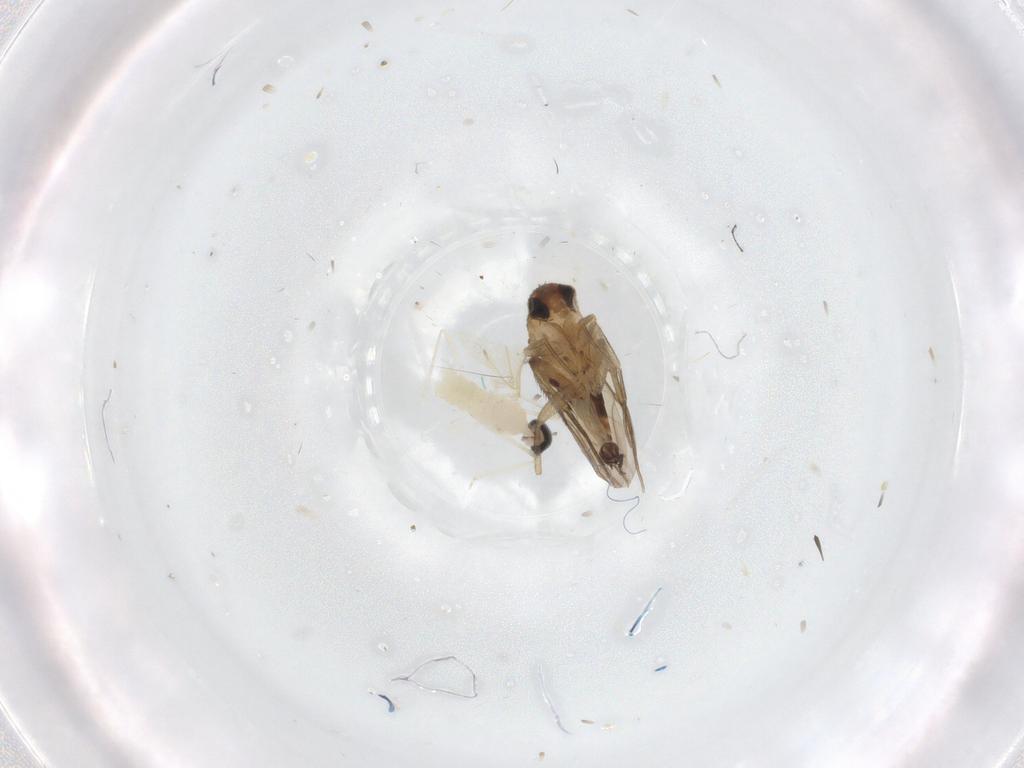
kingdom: Animalia
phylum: Arthropoda
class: Insecta
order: Diptera
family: Phoridae
